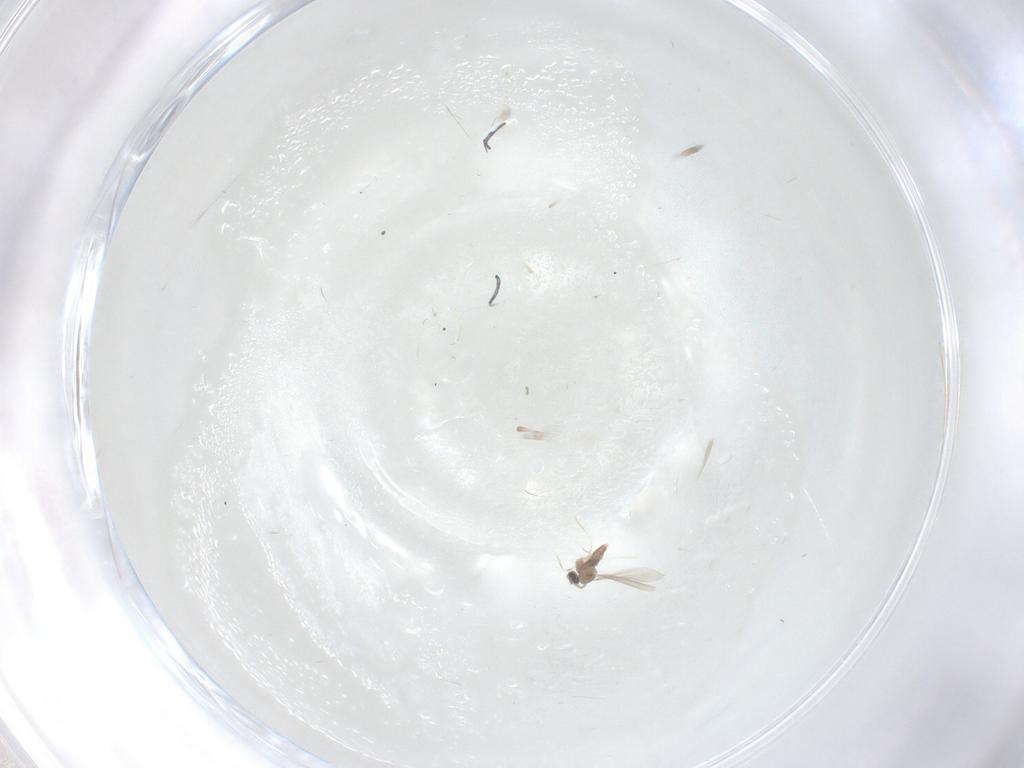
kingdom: Animalia
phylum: Arthropoda
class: Insecta
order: Diptera
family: Cecidomyiidae
